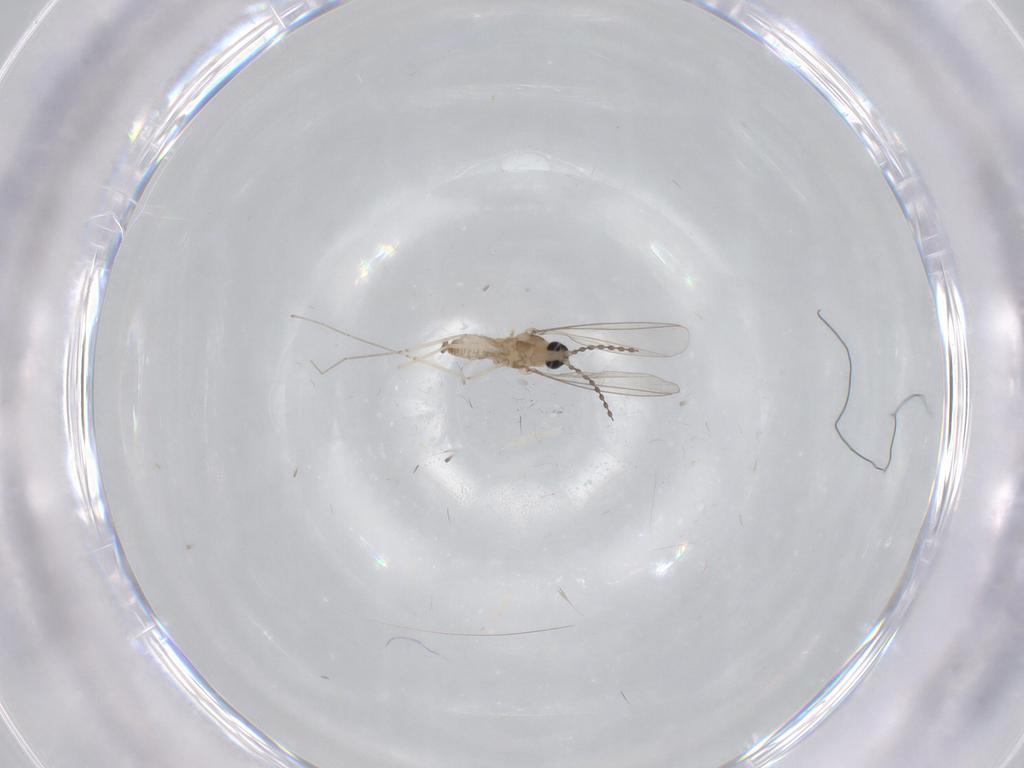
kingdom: Animalia
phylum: Arthropoda
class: Insecta
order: Diptera
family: Cecidomyiidae
